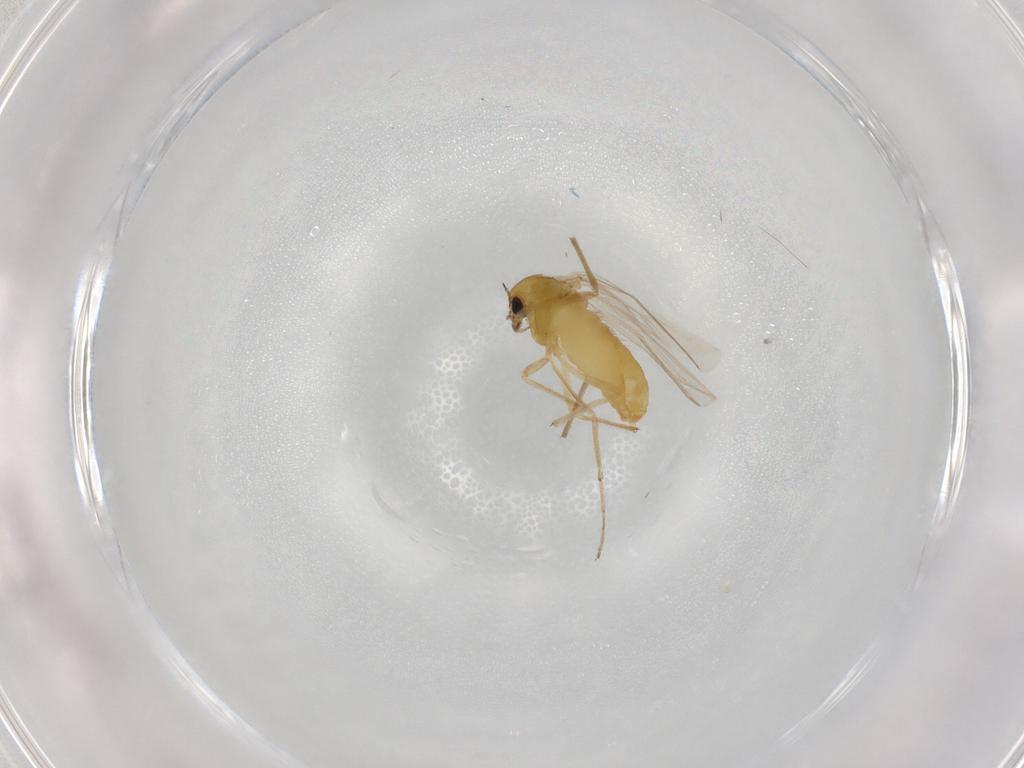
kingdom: Animalia
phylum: Arthropoda
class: Insecta
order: Diptera
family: Chironomidae
